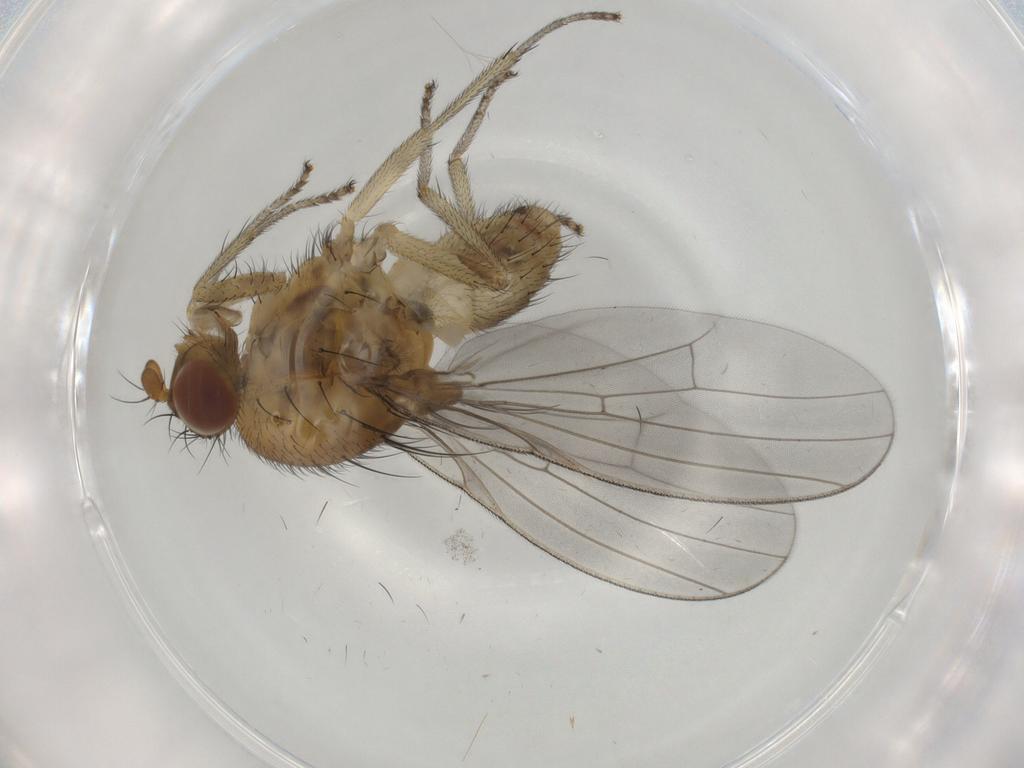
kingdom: Animalia
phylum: Arthropoda
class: Insecta
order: Diptera
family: Lauxaniidae
